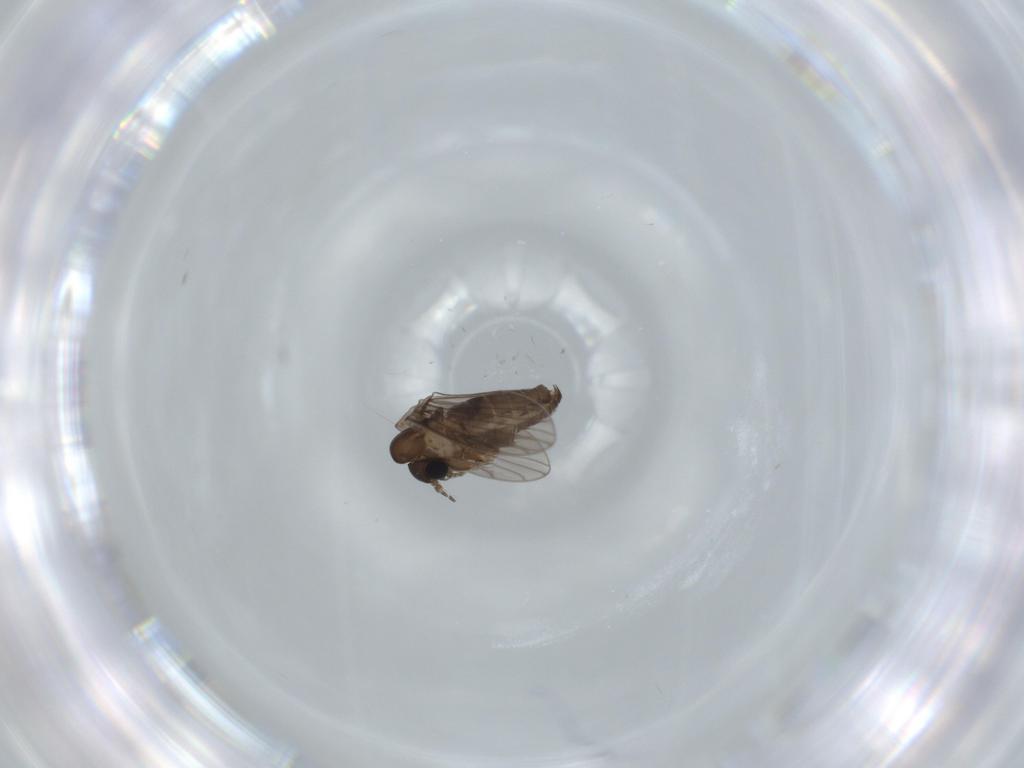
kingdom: Animalia
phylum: Arthropoda
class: Insecta
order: Diptera
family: Psychodidae
